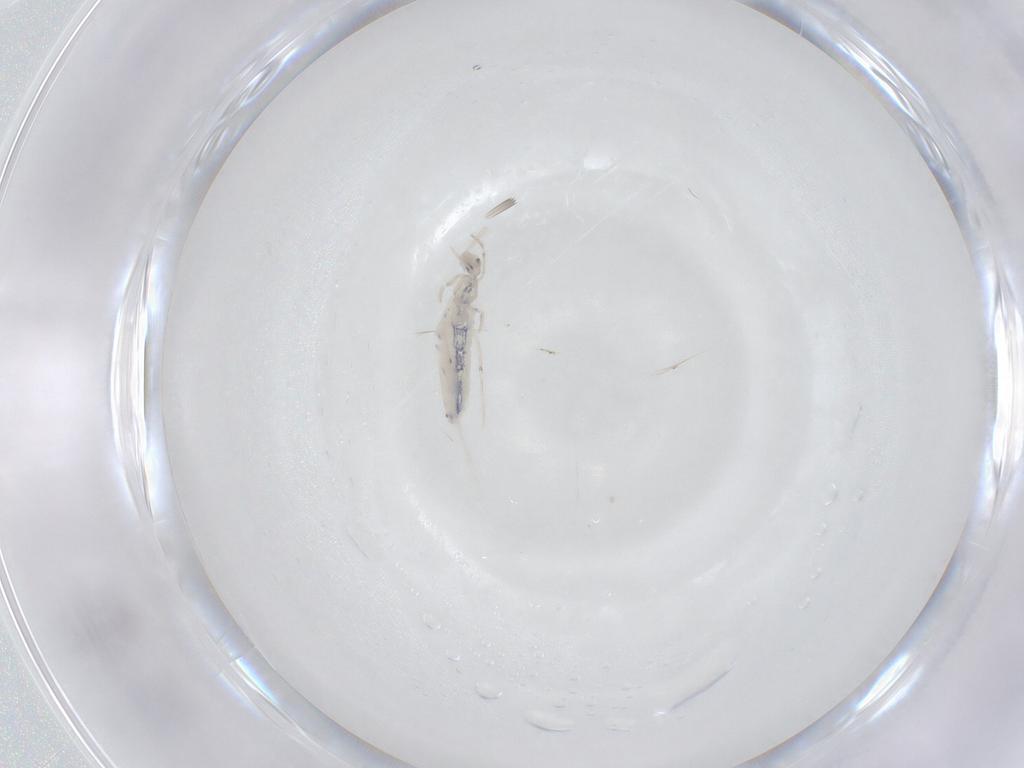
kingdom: Animalia
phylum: Arthropoda
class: Collembola
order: Entomobryomorpha
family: Entomobryidae
